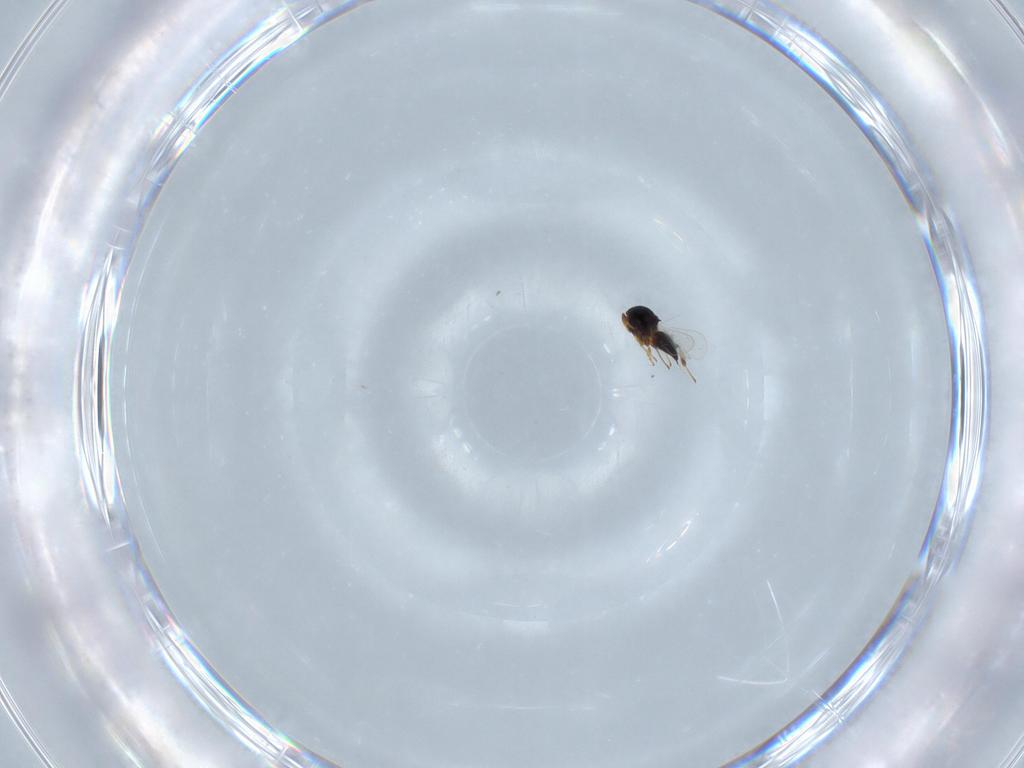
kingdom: Animalia
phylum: Arthropoda
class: Insecta
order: Hymenoptera
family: Platygastridae
